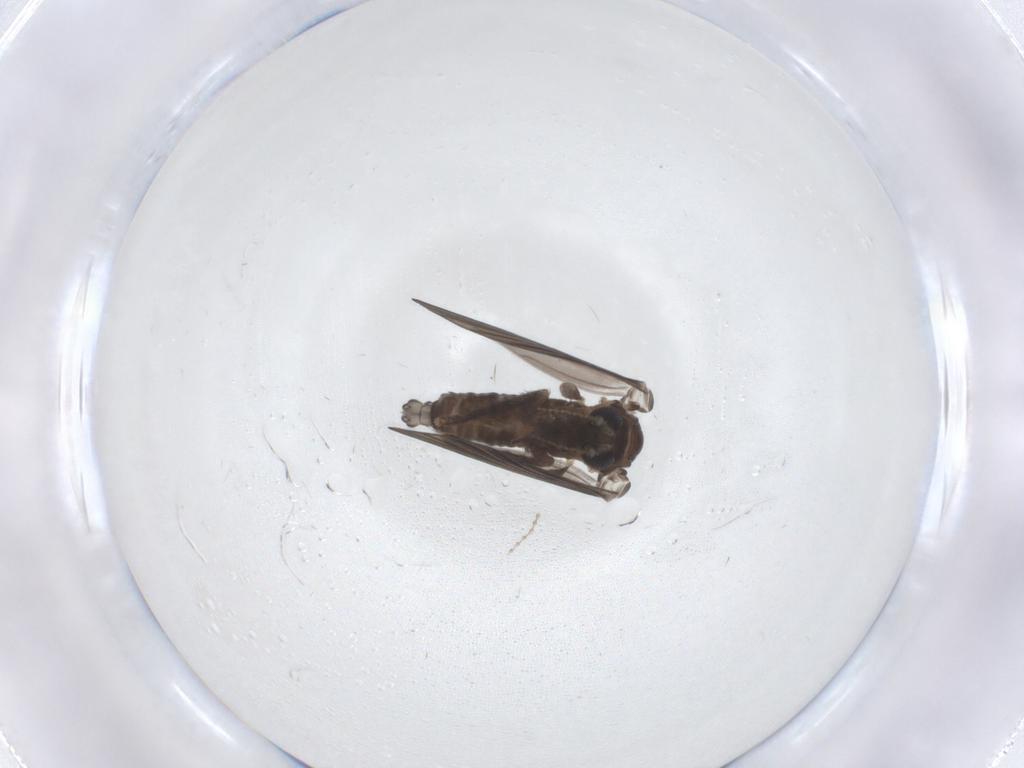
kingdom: Animalia
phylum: Arthropoda
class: Insecta
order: Diptera
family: Psychodidae
